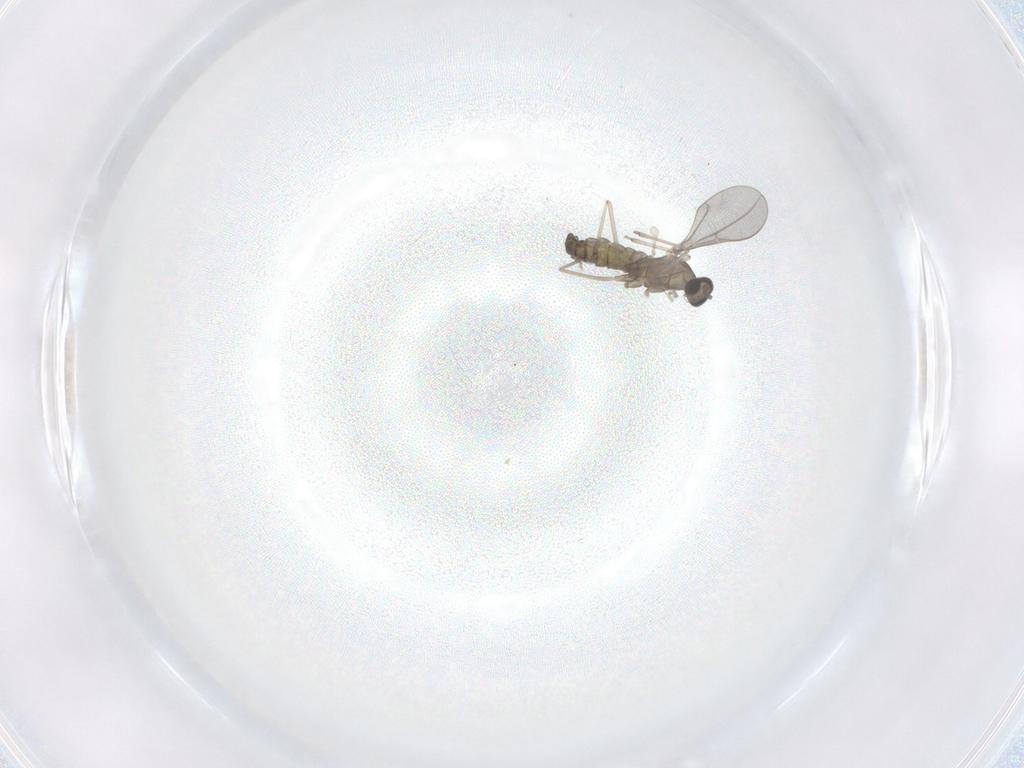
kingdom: Animalia
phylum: Arthropoda
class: Insecta
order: Diptera
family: Cecidomyiidae
